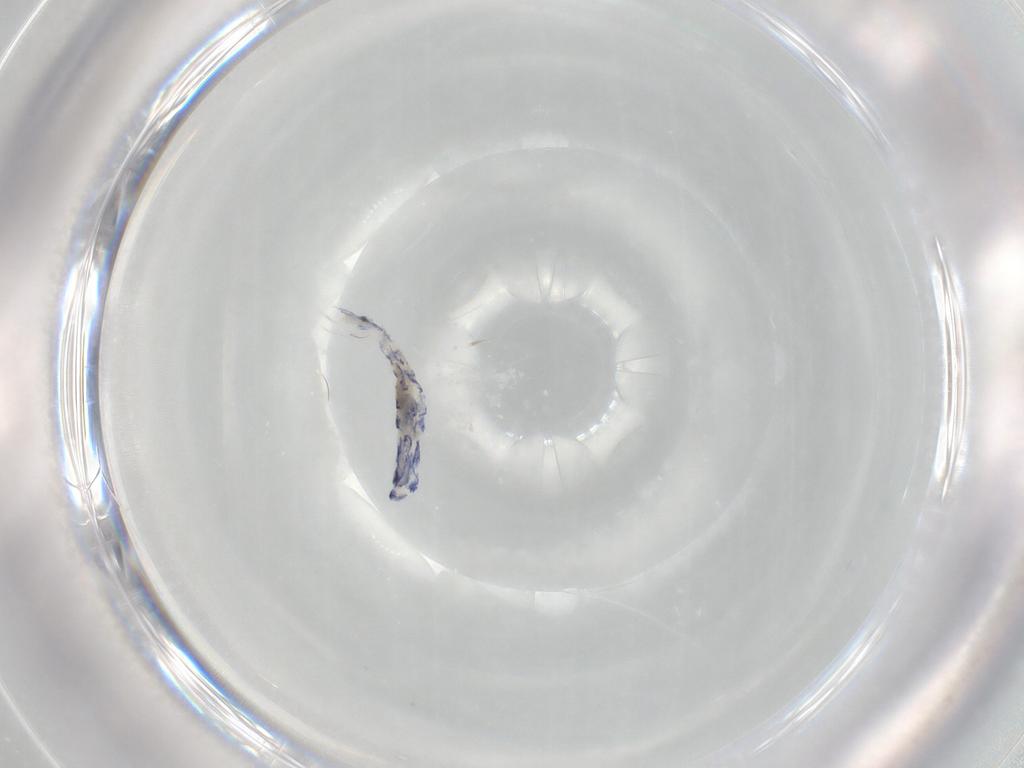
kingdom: Animalia
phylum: Arthropoda
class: Collembola
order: Entomobryomorpha
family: Entomobryidae
